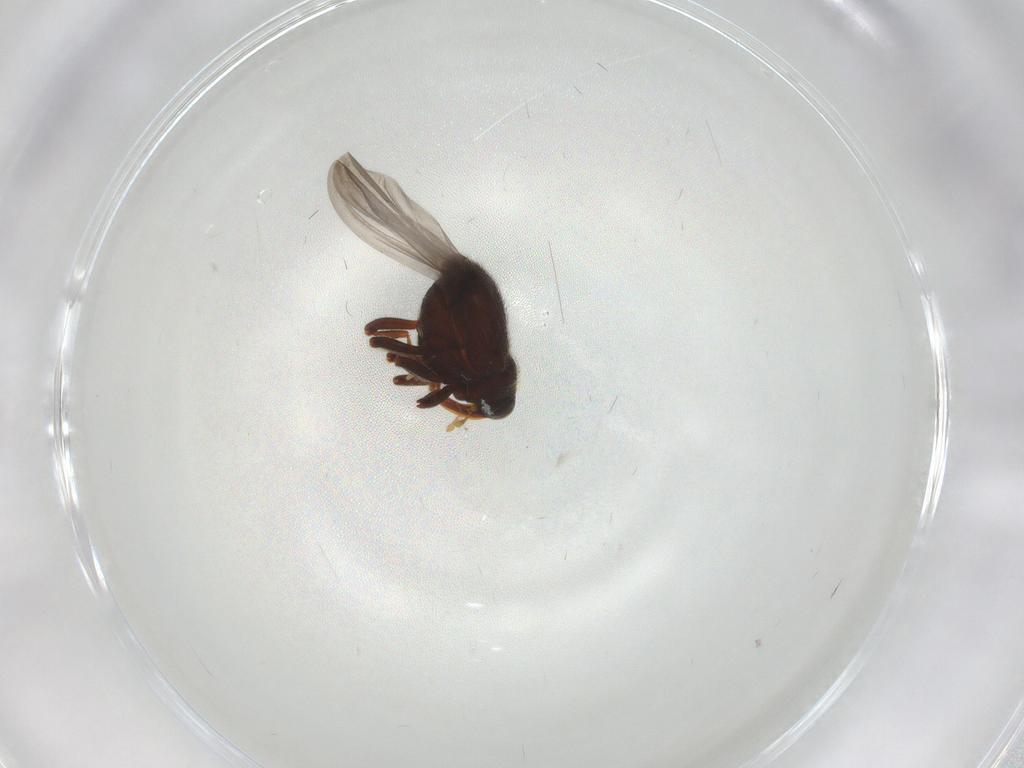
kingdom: Animalia
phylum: Arthropoda
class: Insecta
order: Coleoptera
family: Curculionidae
